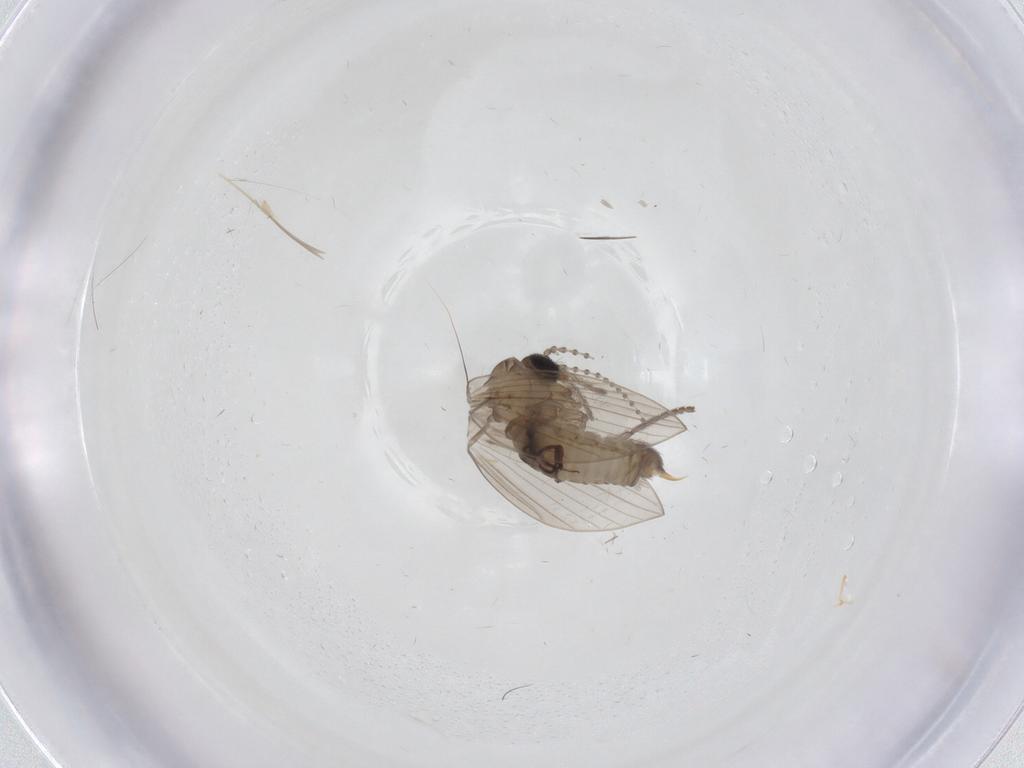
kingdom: Animalia
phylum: Arthropoda
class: Insecta
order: Diptera
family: Psychodidae
